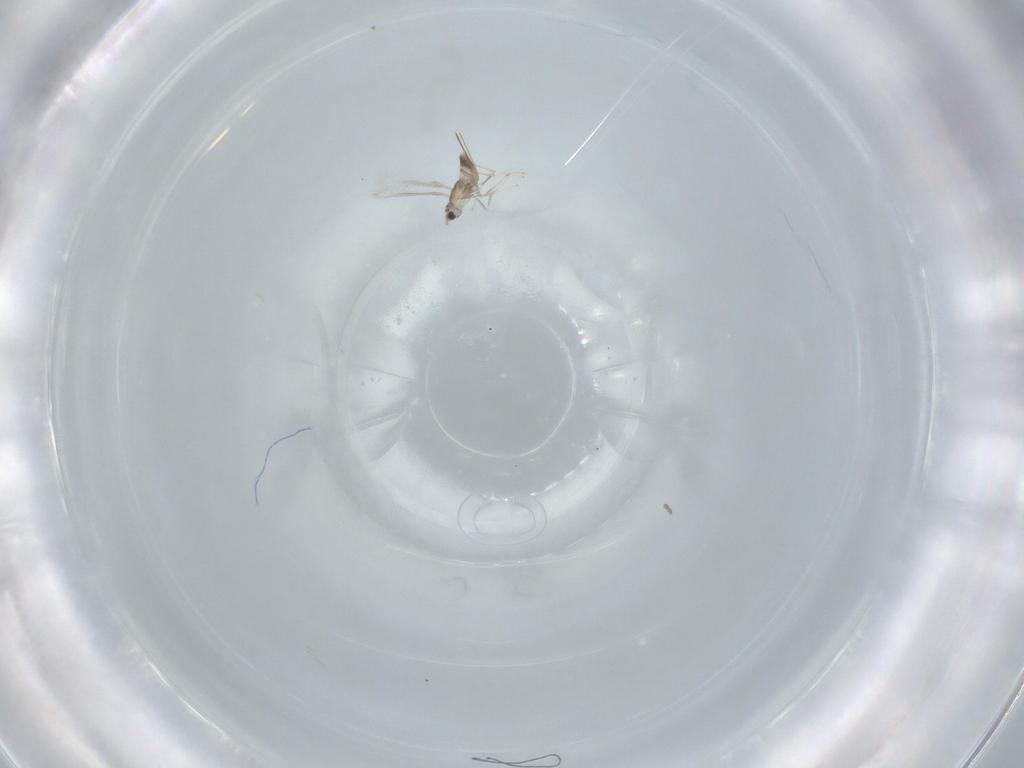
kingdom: Animalia
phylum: Arthropoda
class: Insecta
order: Hymenoptera
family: Mymaridae
